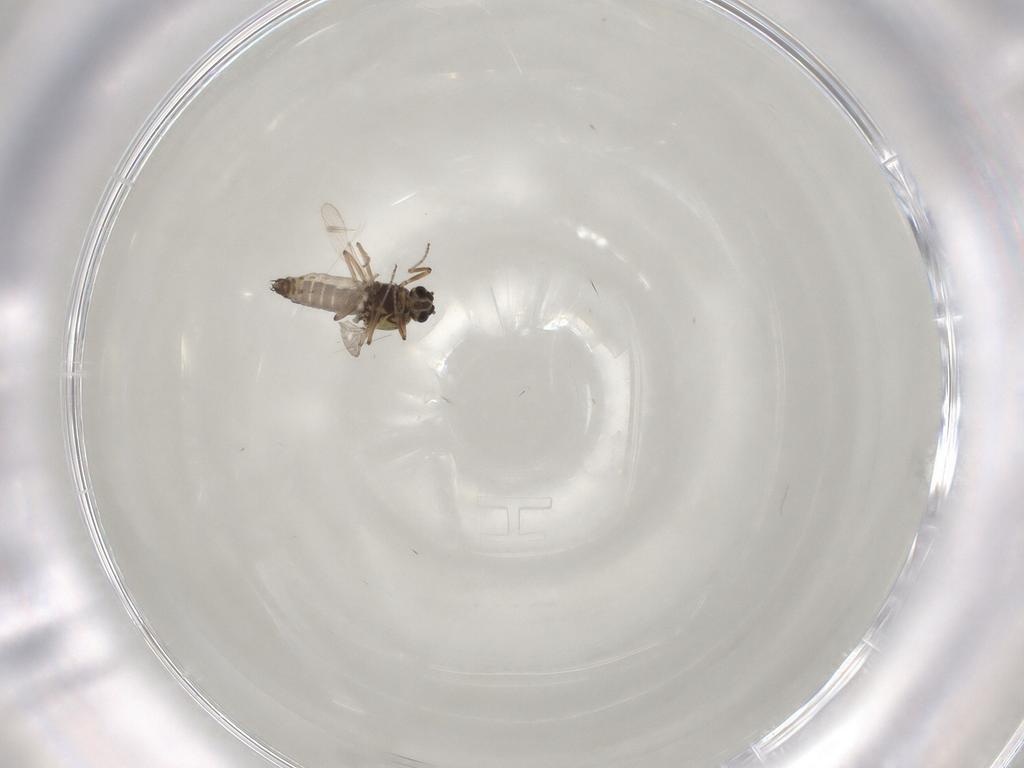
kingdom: Animalia
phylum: Arthropoda
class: Insecta
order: Diptera
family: Ceratopogonidae
